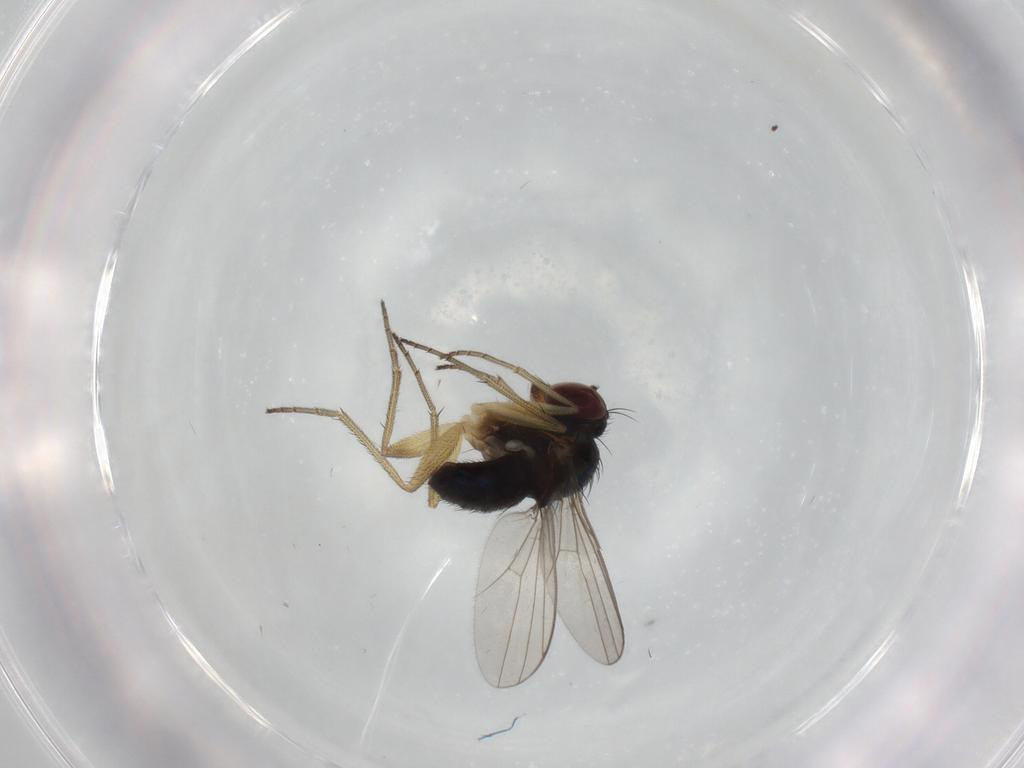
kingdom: Animalia
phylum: Arthropoda
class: Insecta
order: Diptera
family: Dolichopodidae
